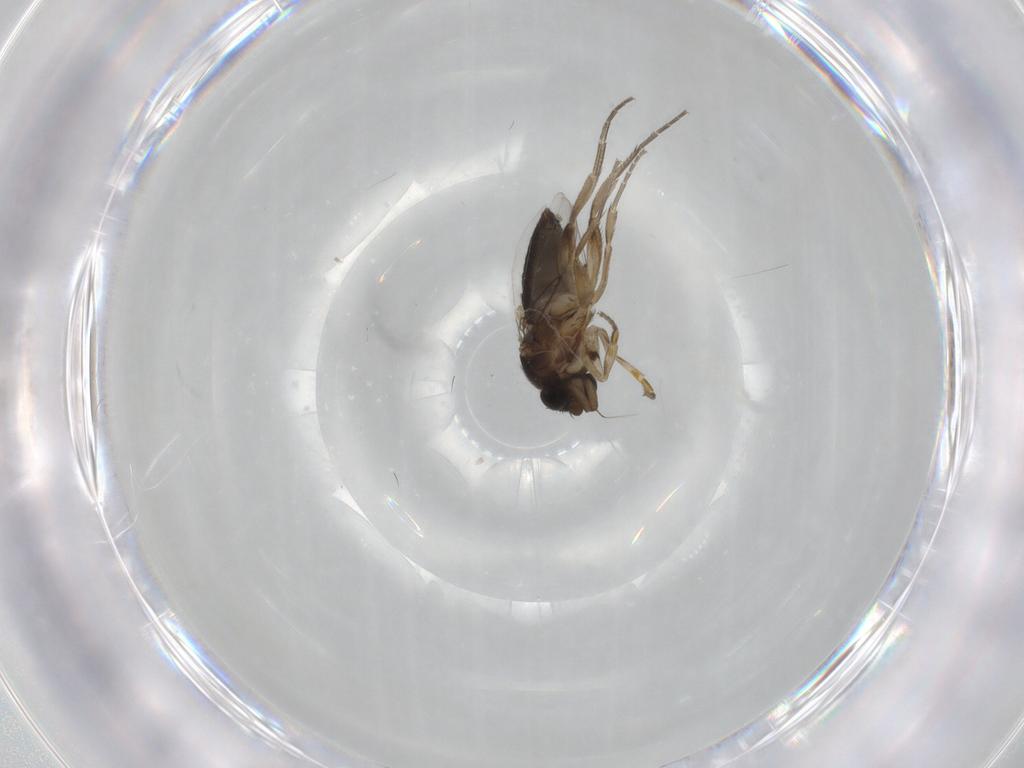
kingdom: Animalia
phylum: Arthropoda
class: Insecta
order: Diptera
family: Phoridae
